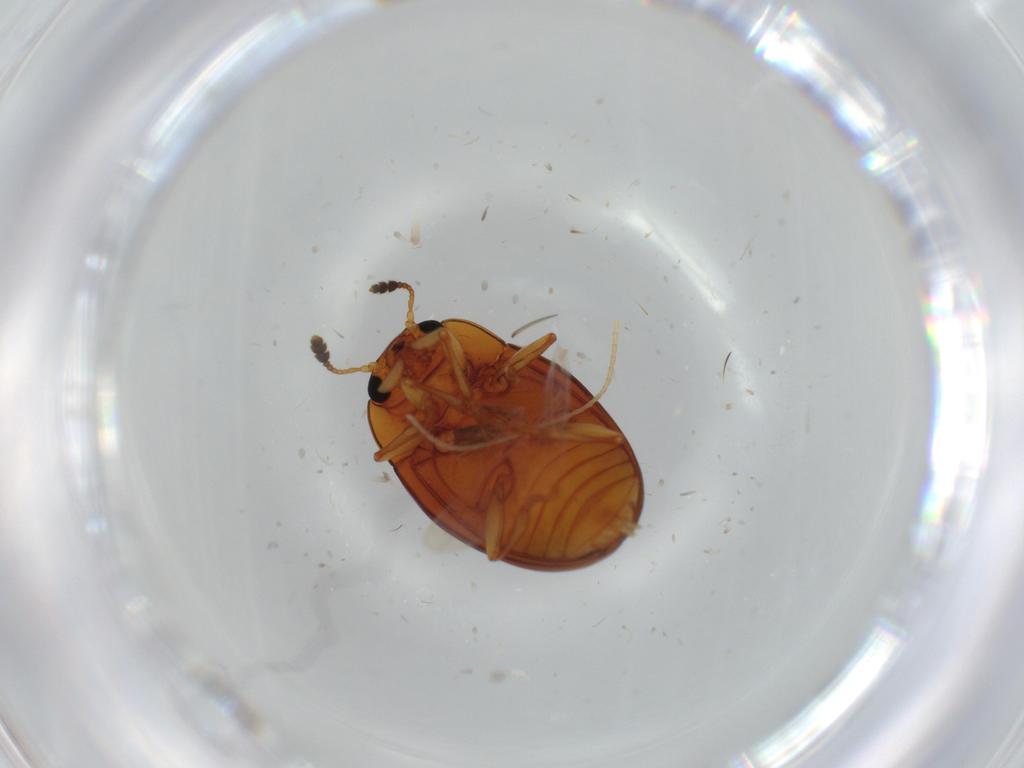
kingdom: Animalia
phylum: Arthropoda
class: Insecta
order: Coleoptera
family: Erotylidae
